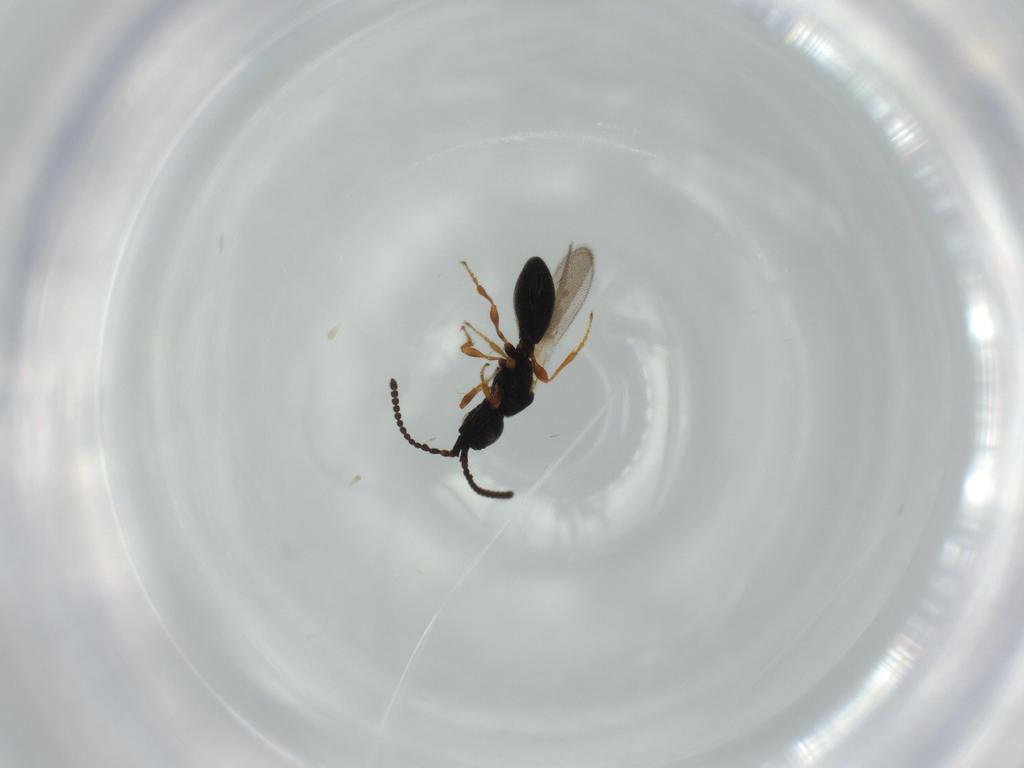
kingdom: Animalia
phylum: Arthropoda
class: Insecta
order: Hymenoptera
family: Diapriidae
